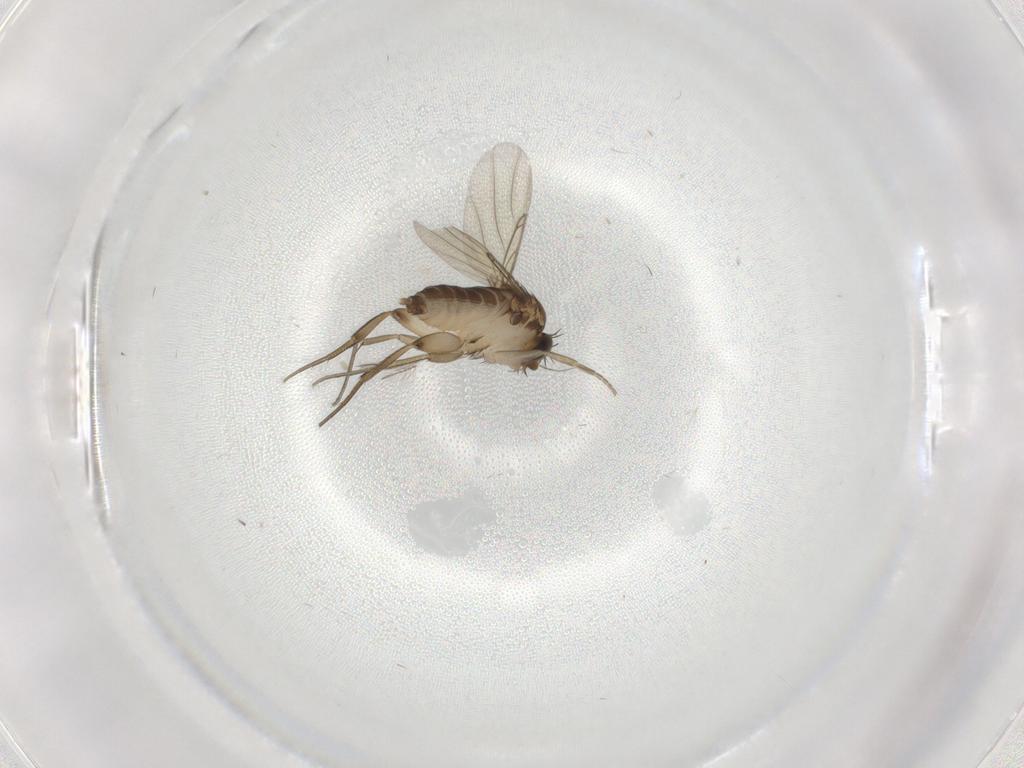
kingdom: Animalia
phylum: Arthropoda
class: Insecta
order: Diptera
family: Phoridae
